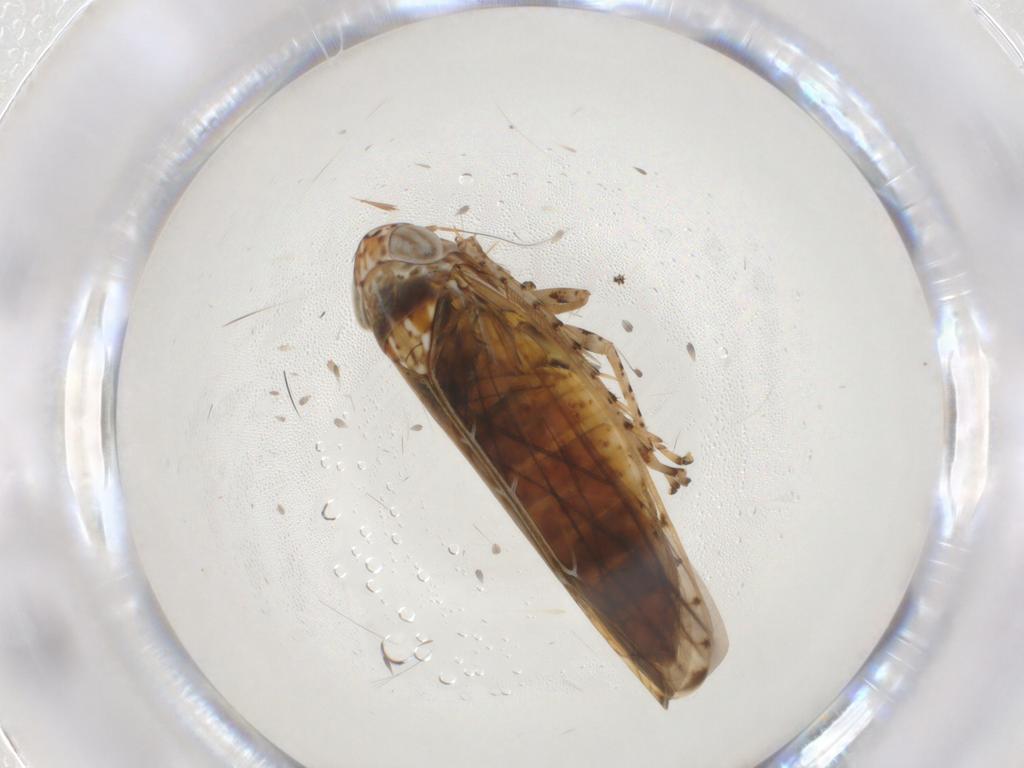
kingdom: Animalia
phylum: Arthropoda
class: Insecta
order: Hemiptera
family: Cicadellidae
